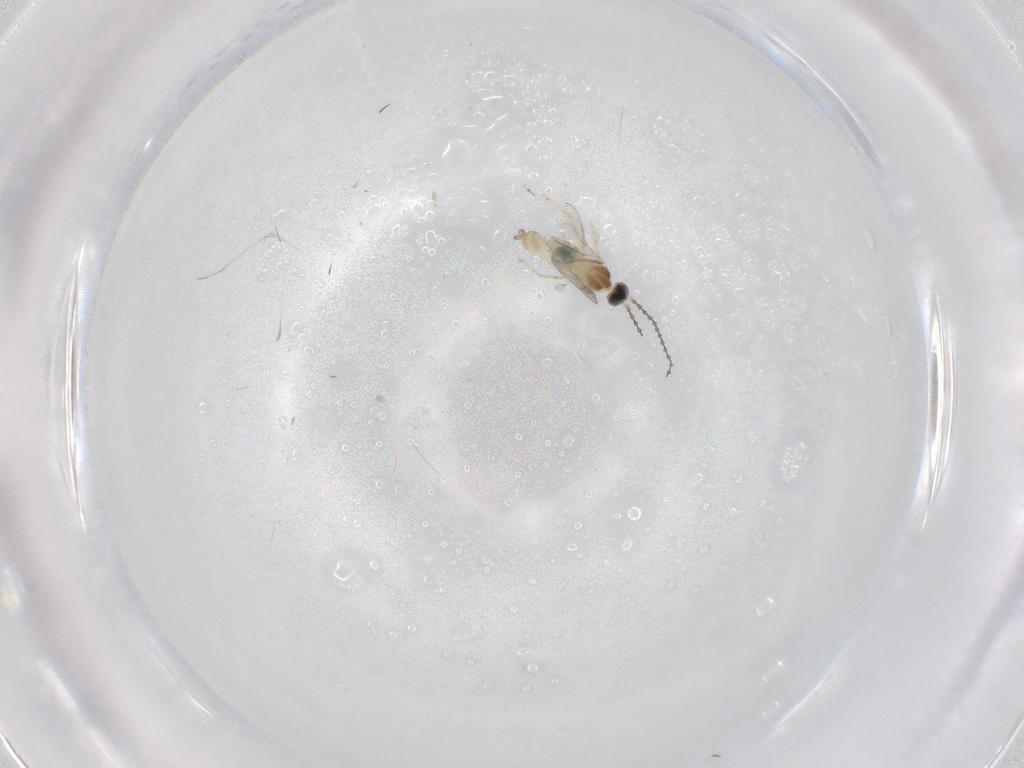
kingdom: Animalia
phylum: Arthropoda
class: Insecta
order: Diptera
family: Cecidomyiidae
